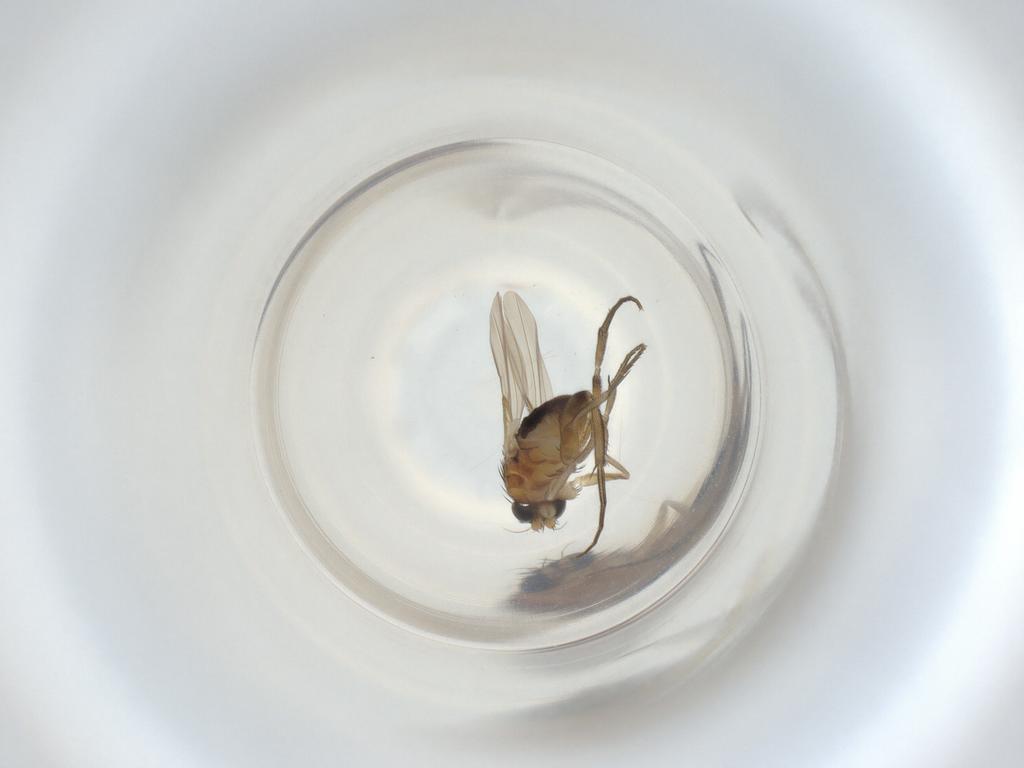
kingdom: Animalia
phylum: Arthropoda
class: Insecta
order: Diptera
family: Phoridae
